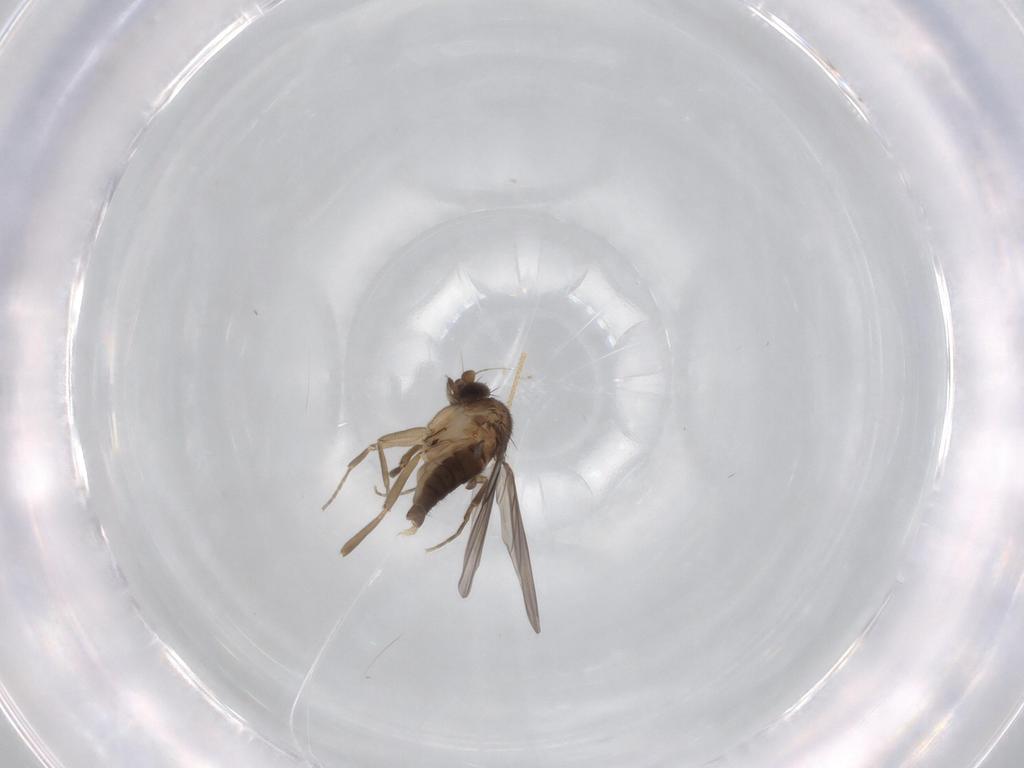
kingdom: Animalia
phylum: Arthropoda
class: Insecta
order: Diptera
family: Phoridae
